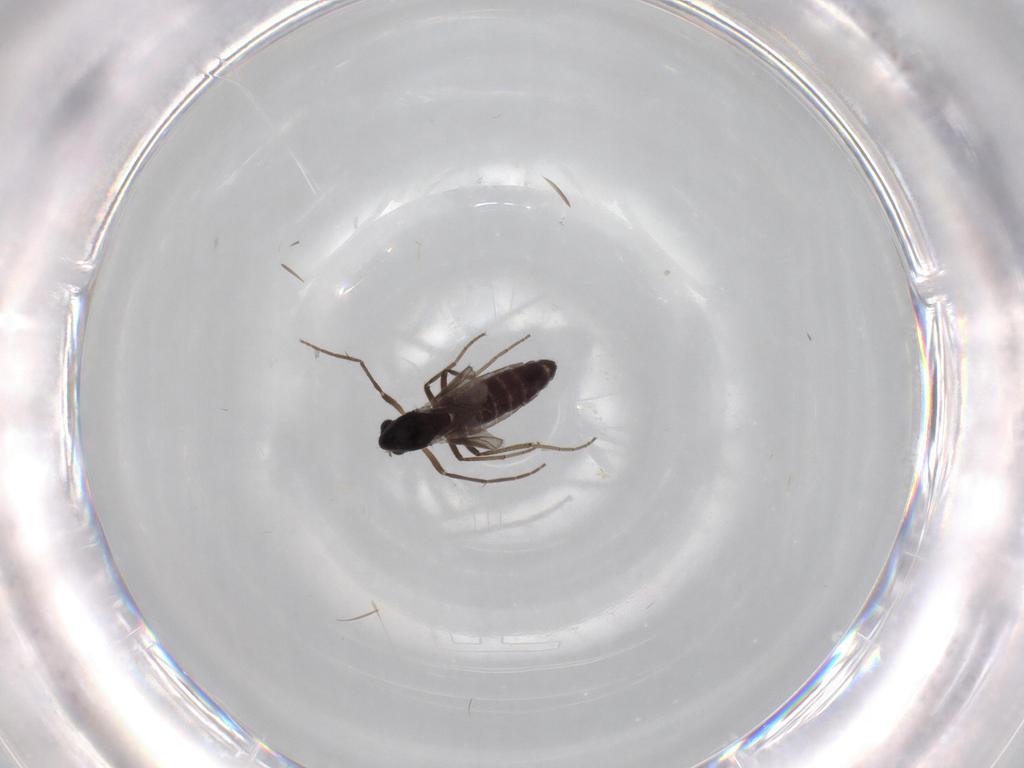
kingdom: Animalia
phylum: Arthropoda
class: Insecta
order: Diptera
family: Chironomidae
